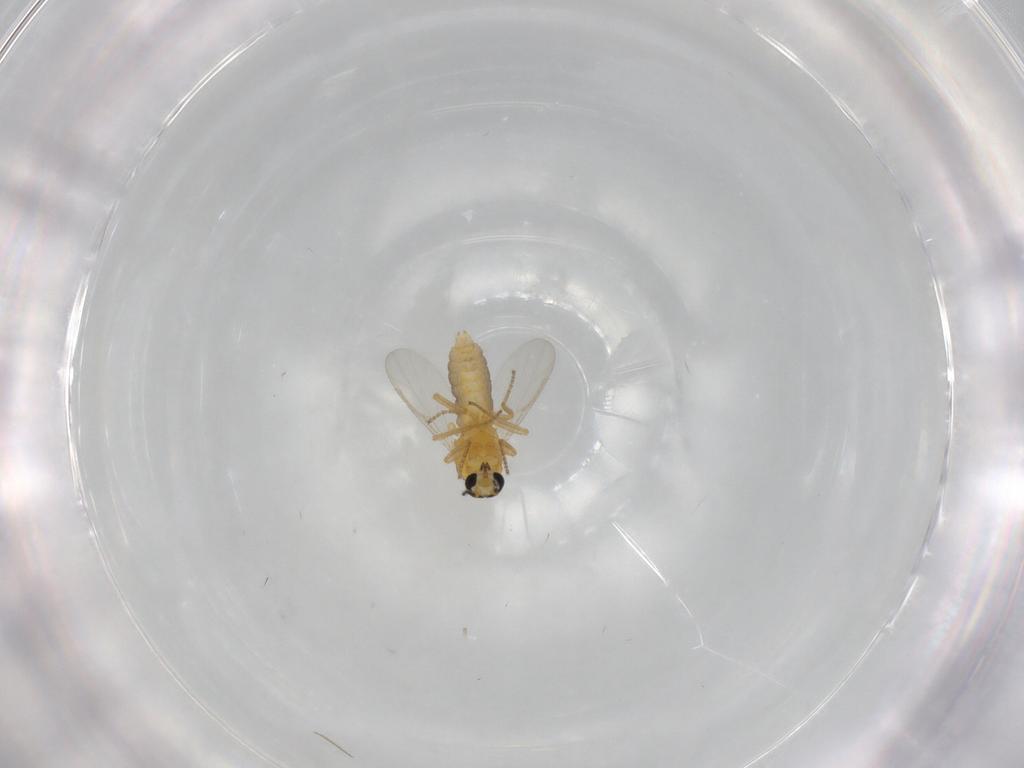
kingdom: Animalia
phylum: Arthropoda
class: Insecta
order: Diptera
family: Ceratopogonidae
